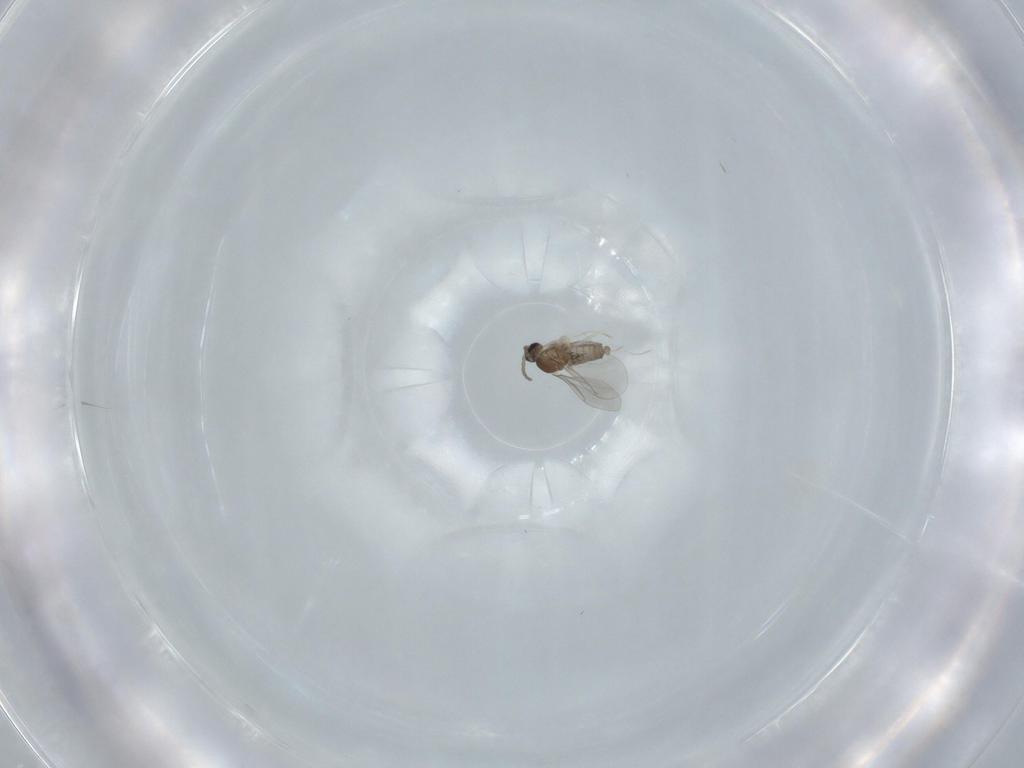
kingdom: Animalia
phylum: Arthropoda
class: Insecta
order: Diptera
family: Cecidomyiidae
